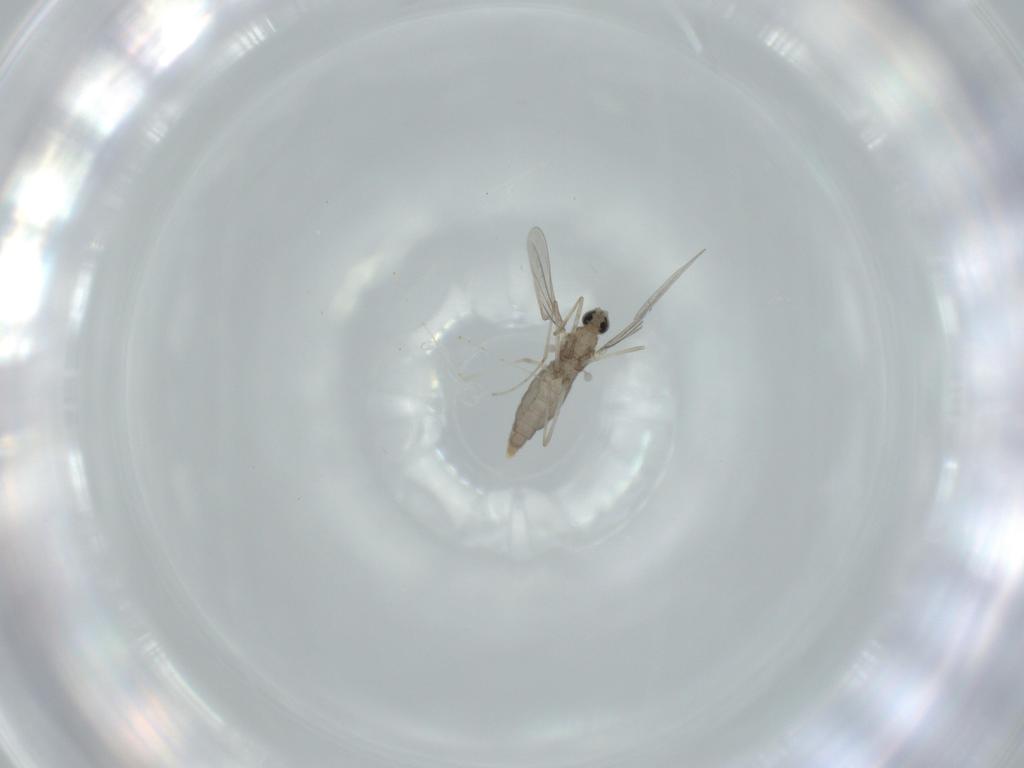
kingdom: Animalia
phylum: Arthropoda
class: Insecta
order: Diptera
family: Cecidomyiidae
